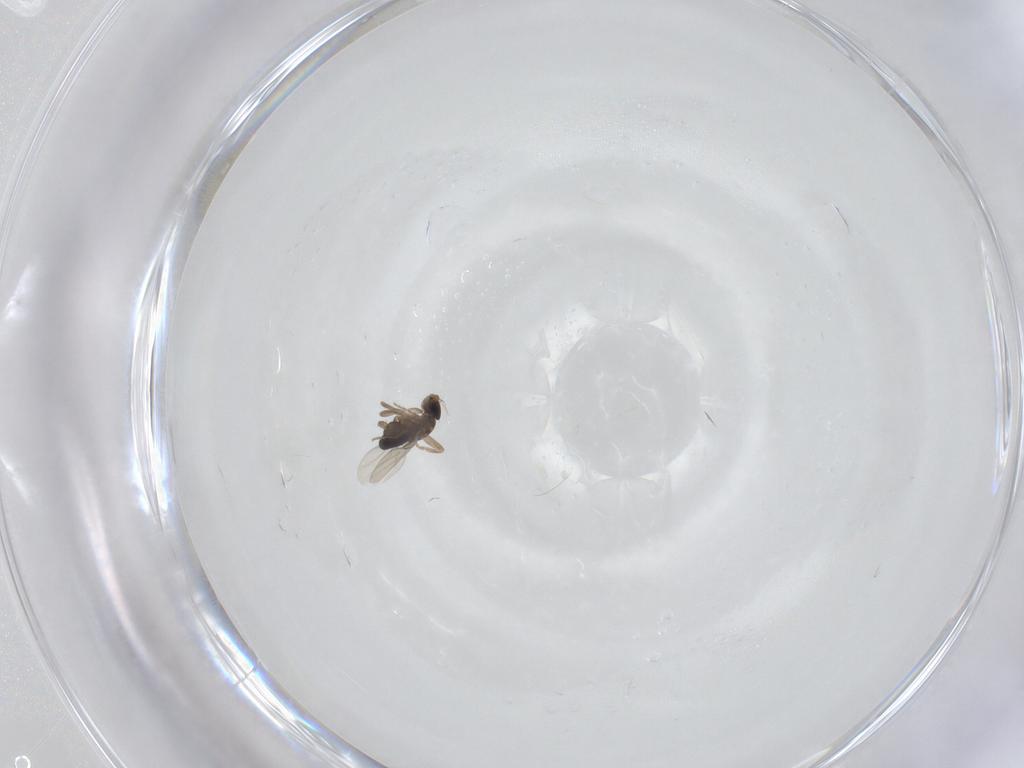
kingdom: Animalia
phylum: Arthropoda
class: Insecta
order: Diptera
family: Phoridae
